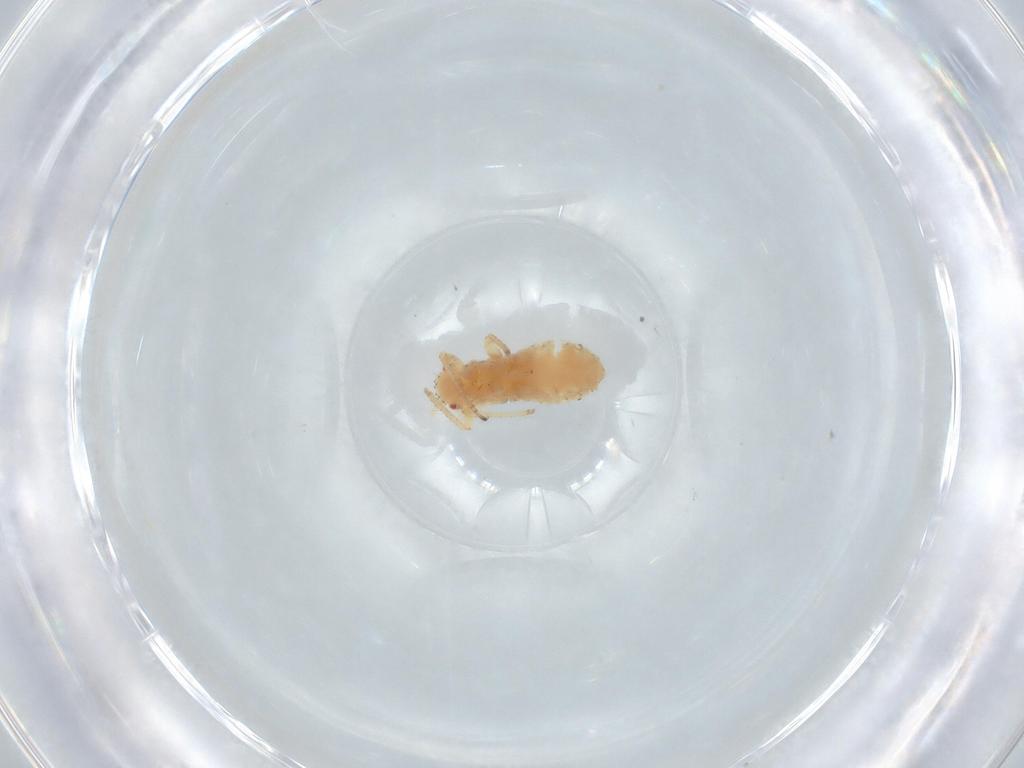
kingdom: Animalia
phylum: Arthropoda
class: Insecta
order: Hemiptera
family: Aphididae
